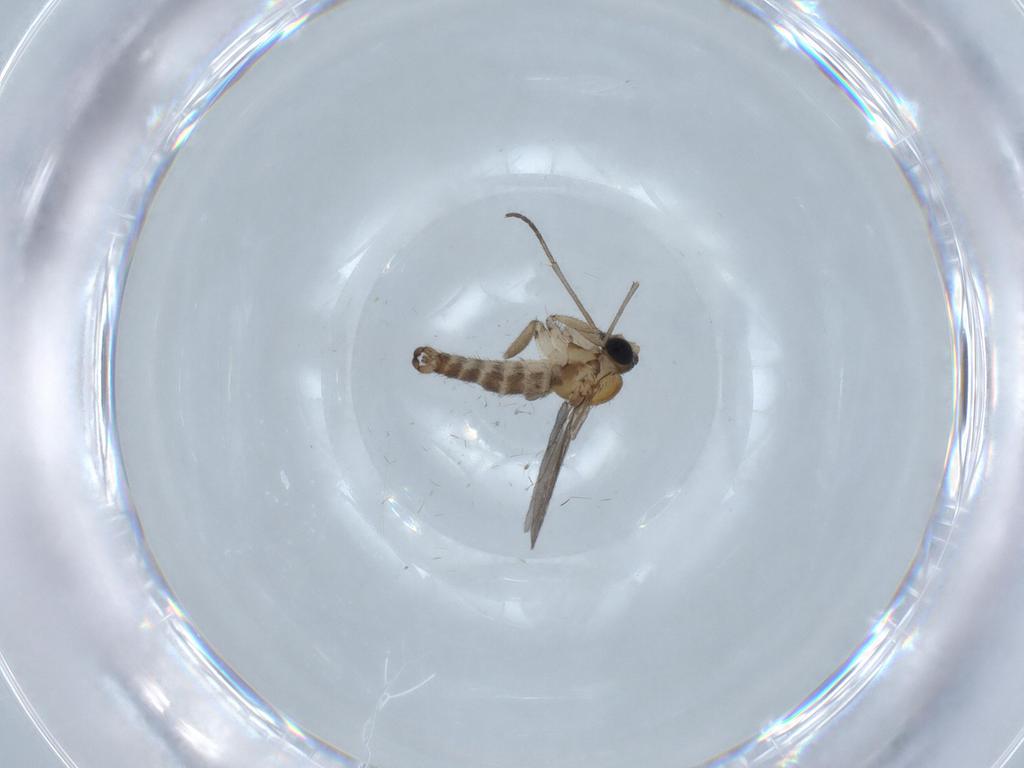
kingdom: Animalia
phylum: Arthropoda
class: Insecta
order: Diptera
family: Sciaridae
